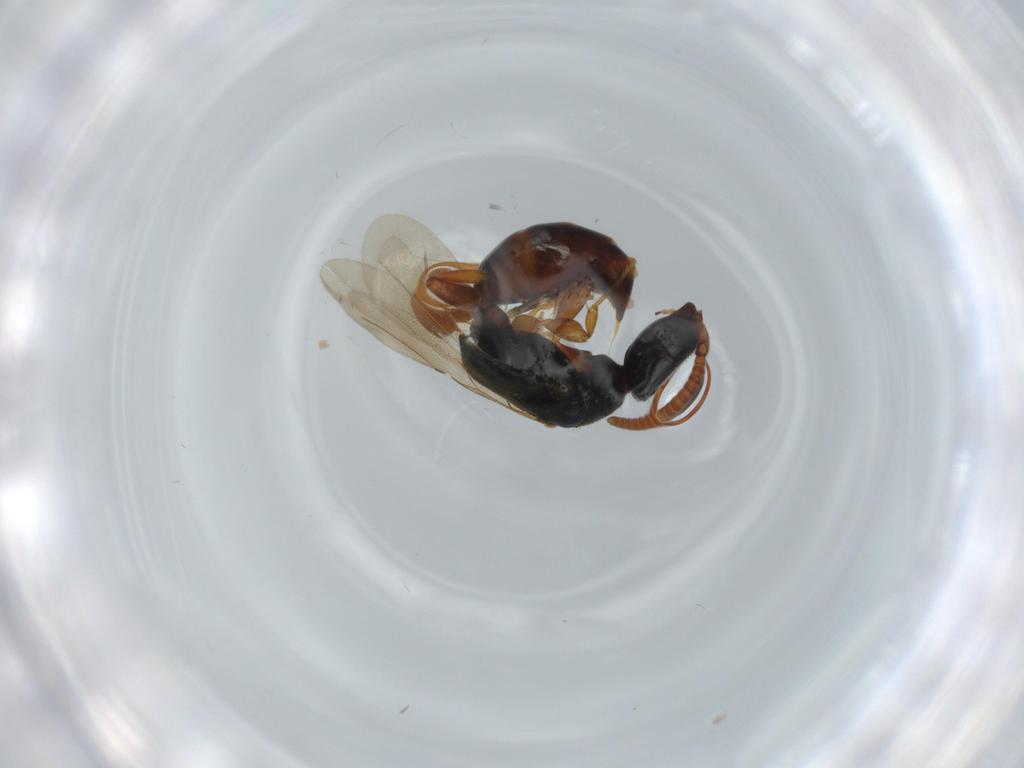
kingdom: Animalia
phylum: Arthropoda
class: Insecta
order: Hymenoptera
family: Bethylidae
